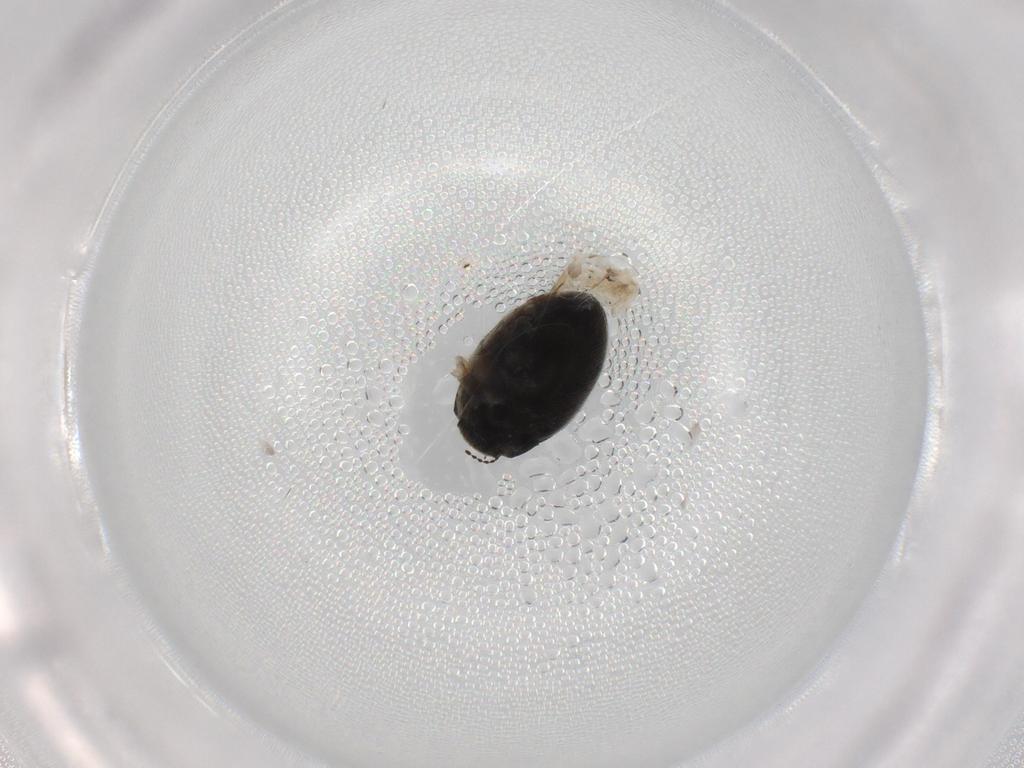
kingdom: Animalia
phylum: Arthropoda
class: Insecta
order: Coleoptera
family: Limnichidae
